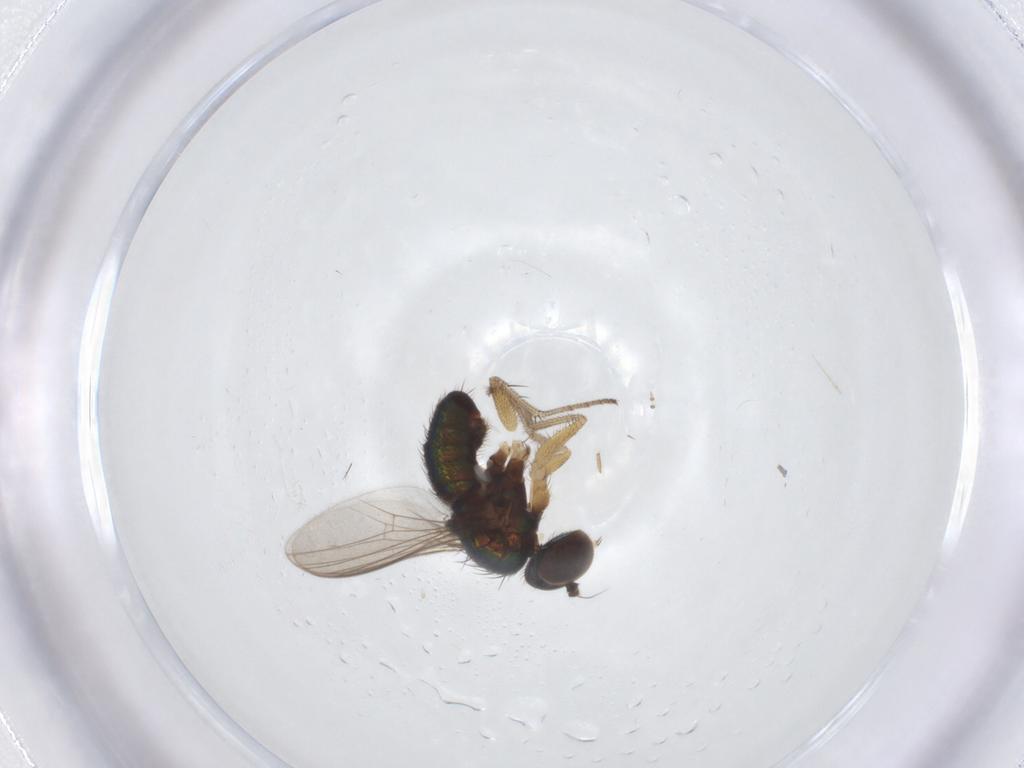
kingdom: Animalia
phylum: Arthropoda
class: Insecta
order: Diptera
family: Dolichopodidae
